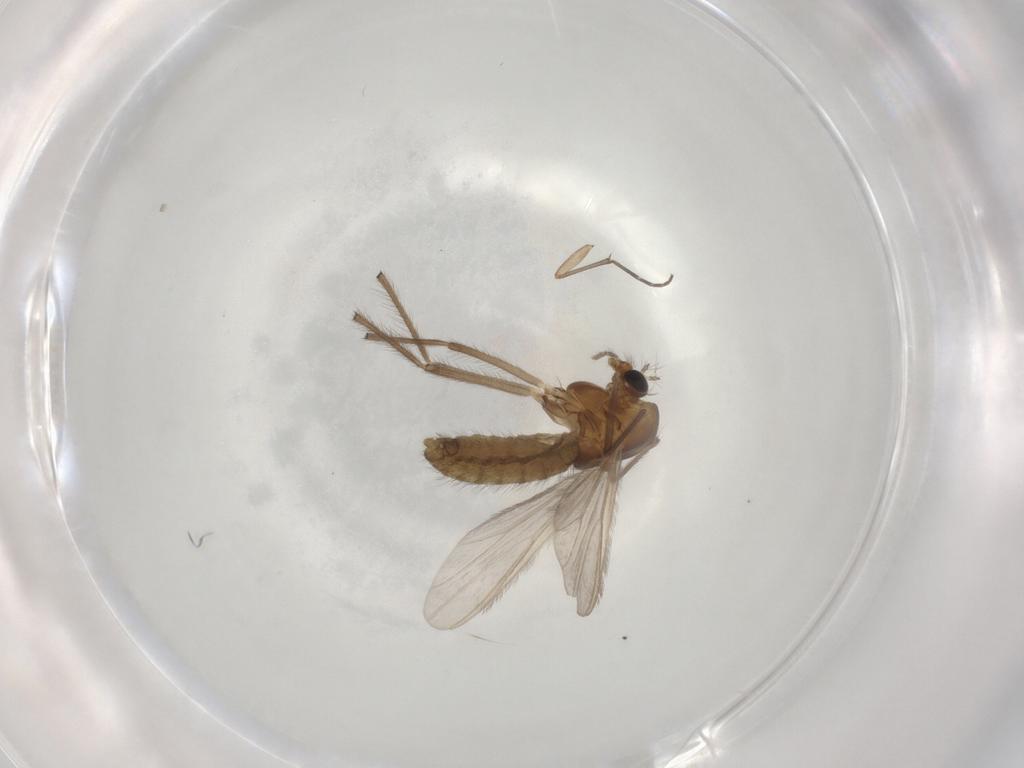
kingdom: Animalia
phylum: Arthropoda
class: Insecta
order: Diptera
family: Chironomidae
